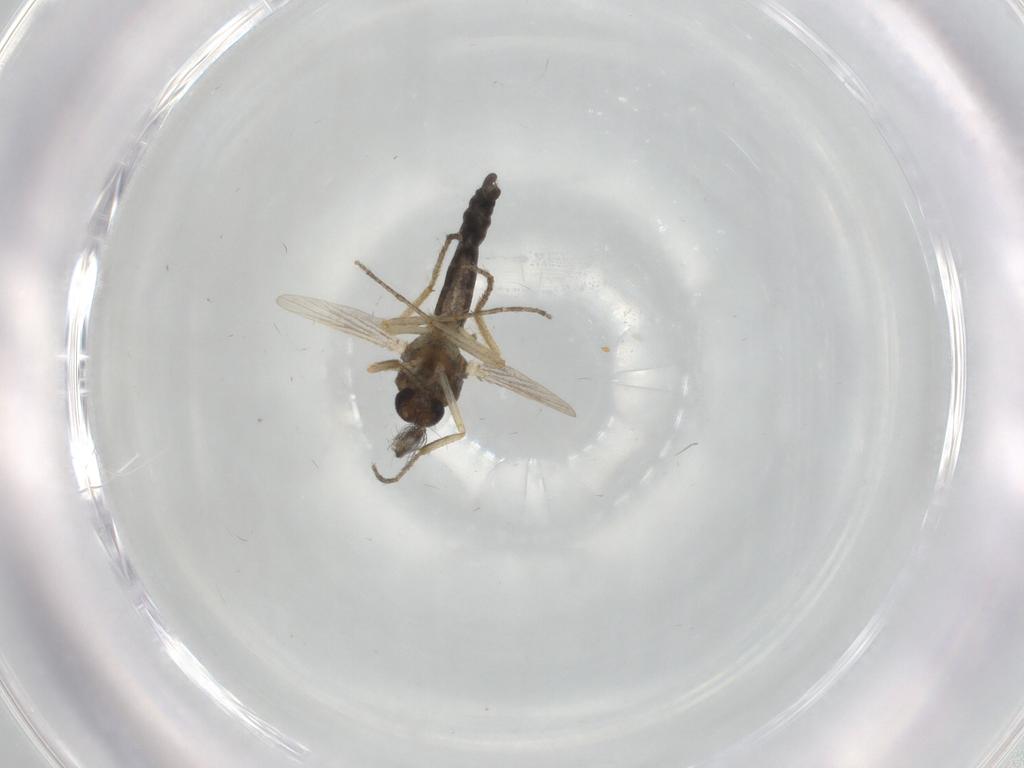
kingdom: Animalia
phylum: Arthropoda
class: Insecta
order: Diptera
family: Ceratopogonidae
